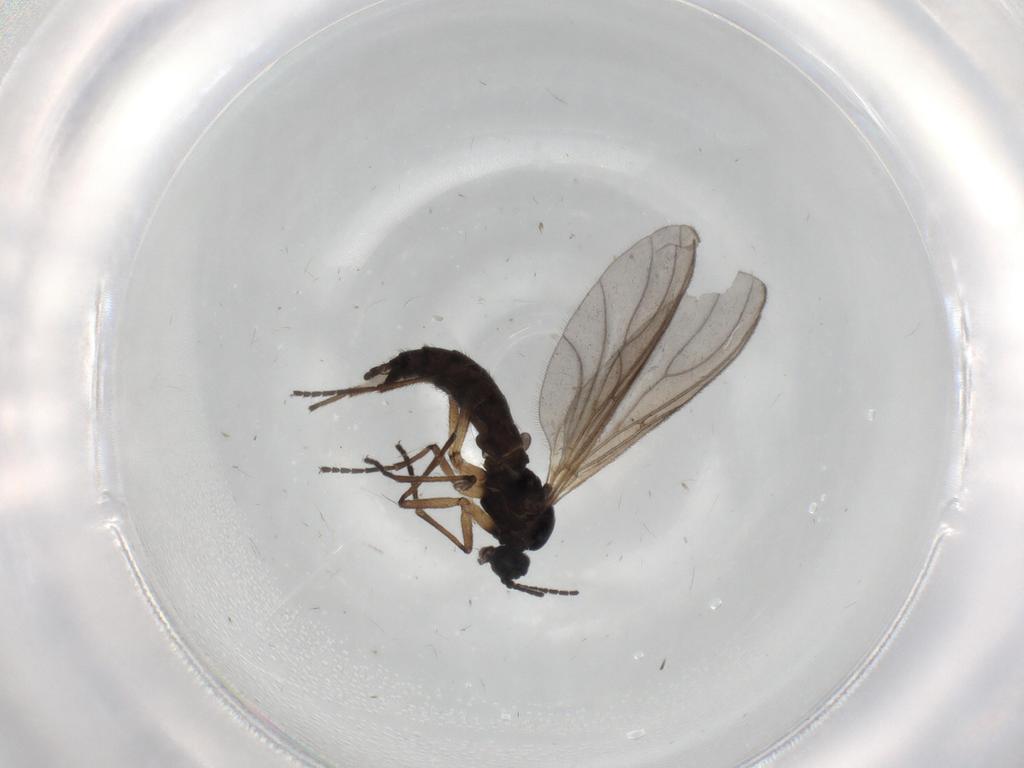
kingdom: Animalia
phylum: Arthropoda
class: Insecta
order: Diptera
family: Sciaridae
